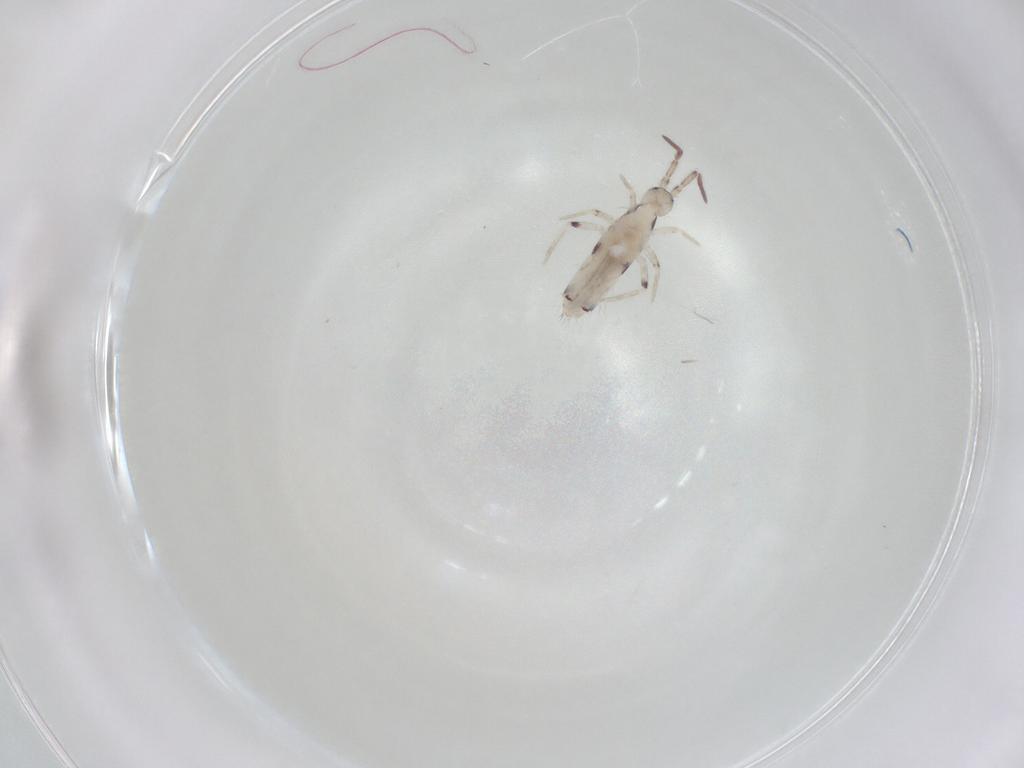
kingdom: Animalia
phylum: Arthropoda
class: Collembola
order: Entomobryomorpha
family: Entomobryidae
